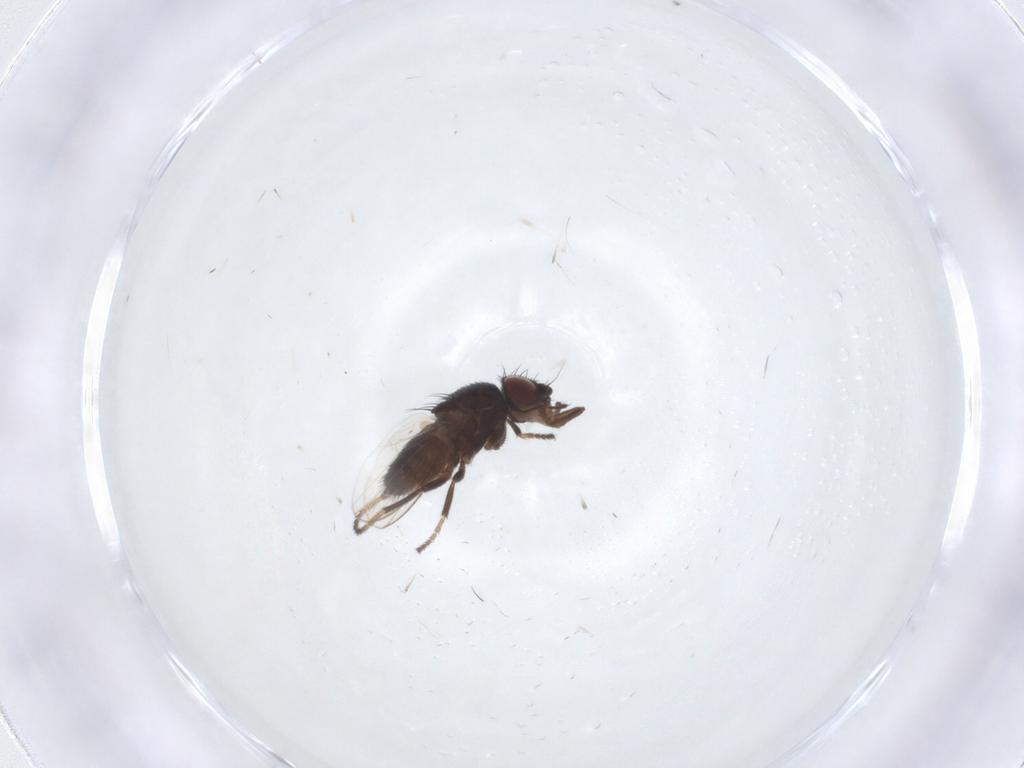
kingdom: Animalia
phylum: Arthropoda
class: Insecta
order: Diptera
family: Milichiidae
